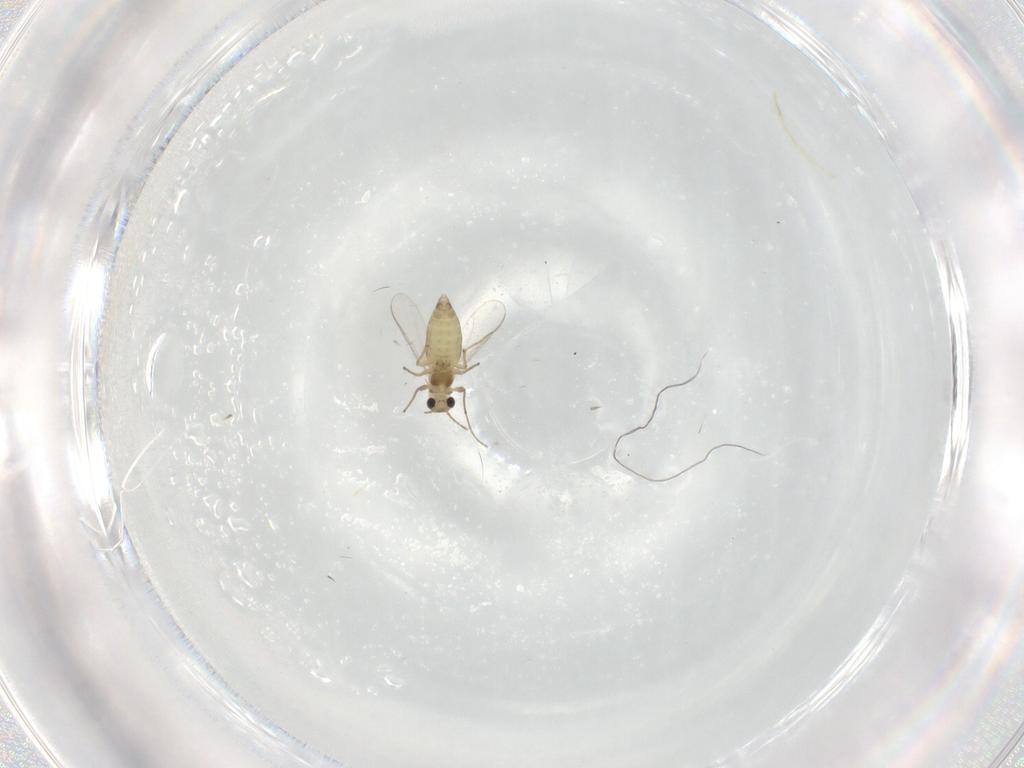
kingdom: Animalia
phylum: Arthropoda
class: Insecta
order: Diptera
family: Chironomidae
